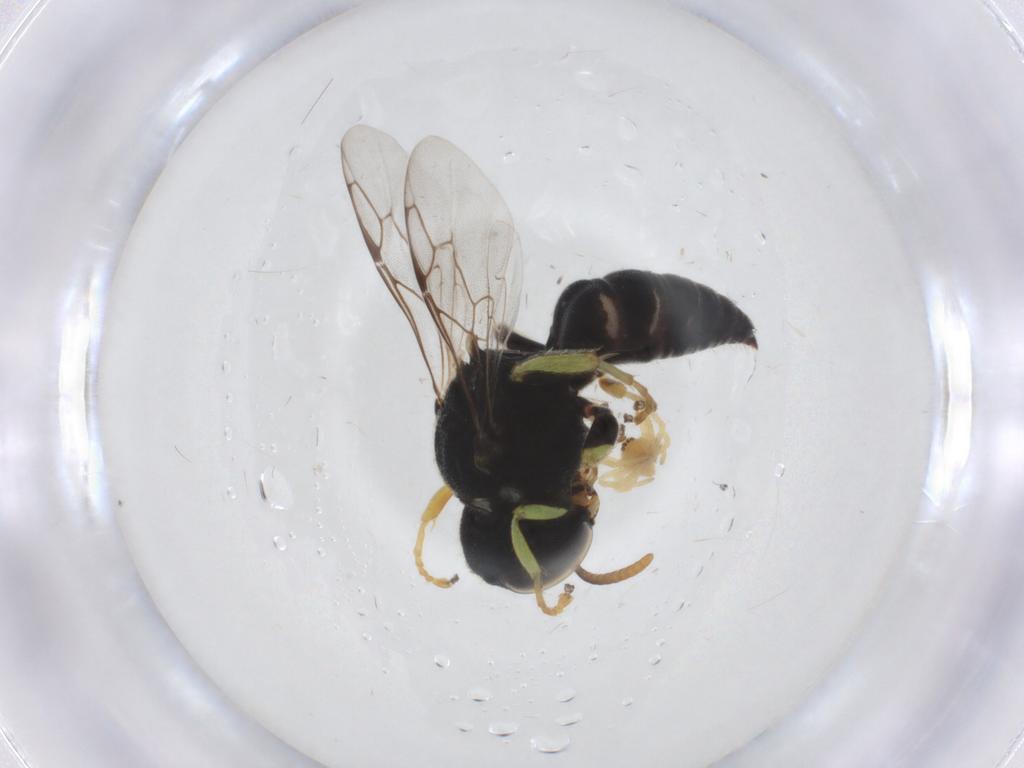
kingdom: Animalia
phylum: Arthropoda
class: Insecta
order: Hymenoptera
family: Crabronidae
